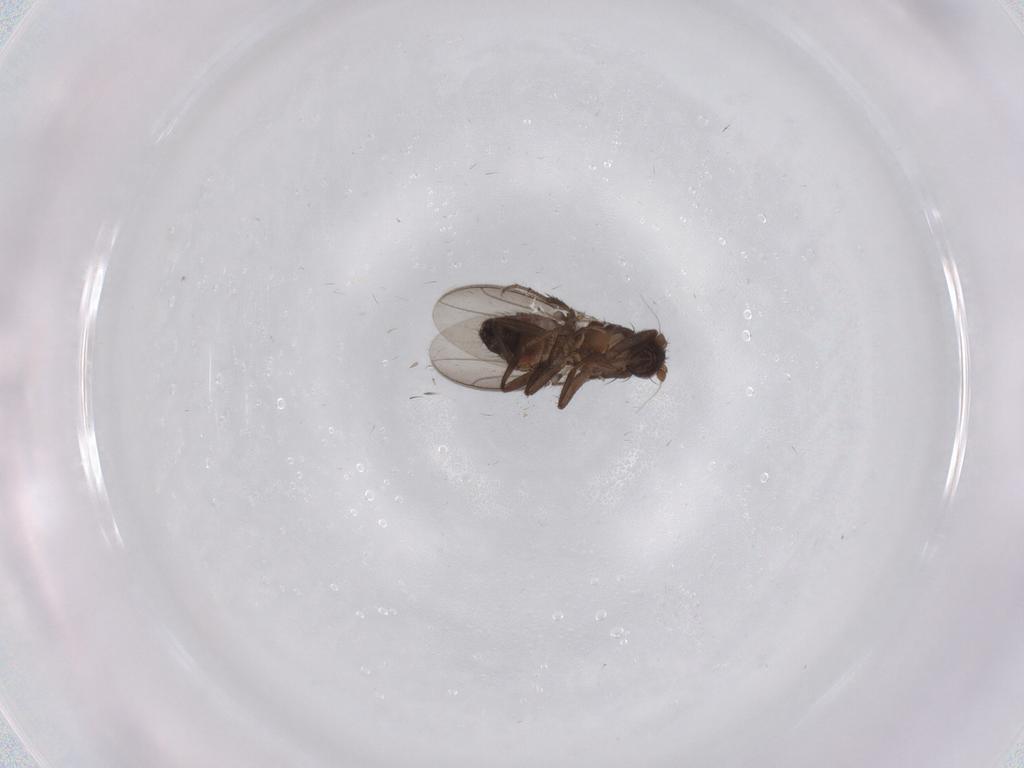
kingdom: Animalia
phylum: Arthropoda
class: Insecta
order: Diptera
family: Sphaeroceridae
